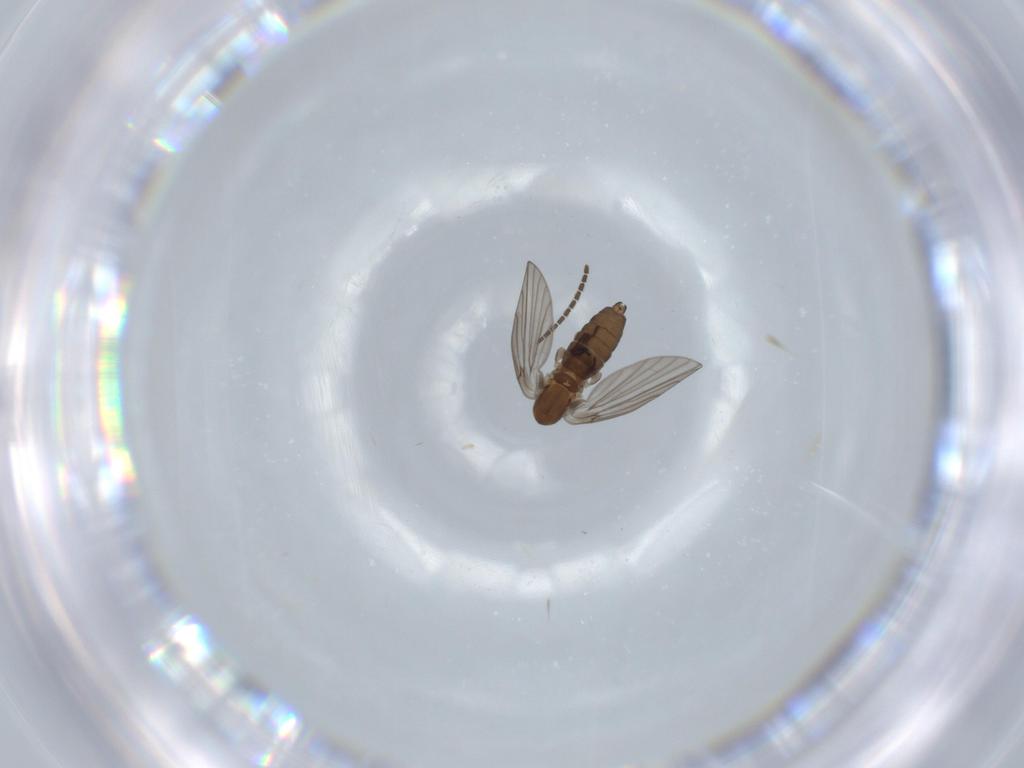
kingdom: Animalia
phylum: Arthropoda
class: Insecta
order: Diptera
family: Sciaridae
